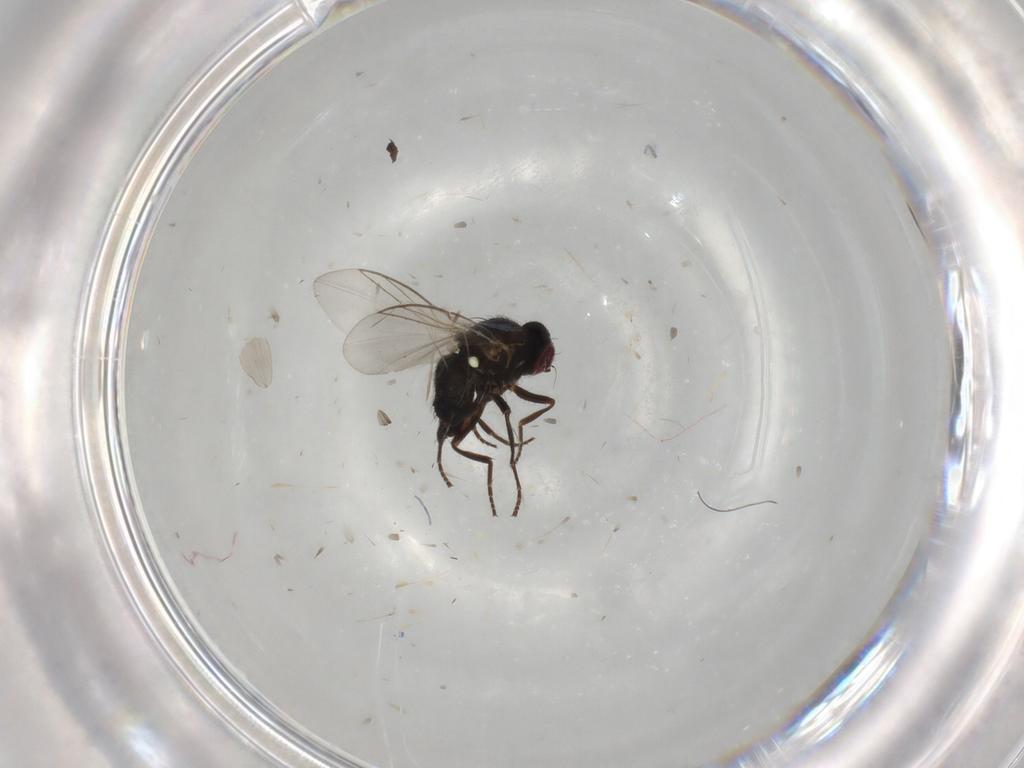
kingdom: Animalia
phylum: Arthropoda
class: Insecta
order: Diptera
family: Agromyzidae
